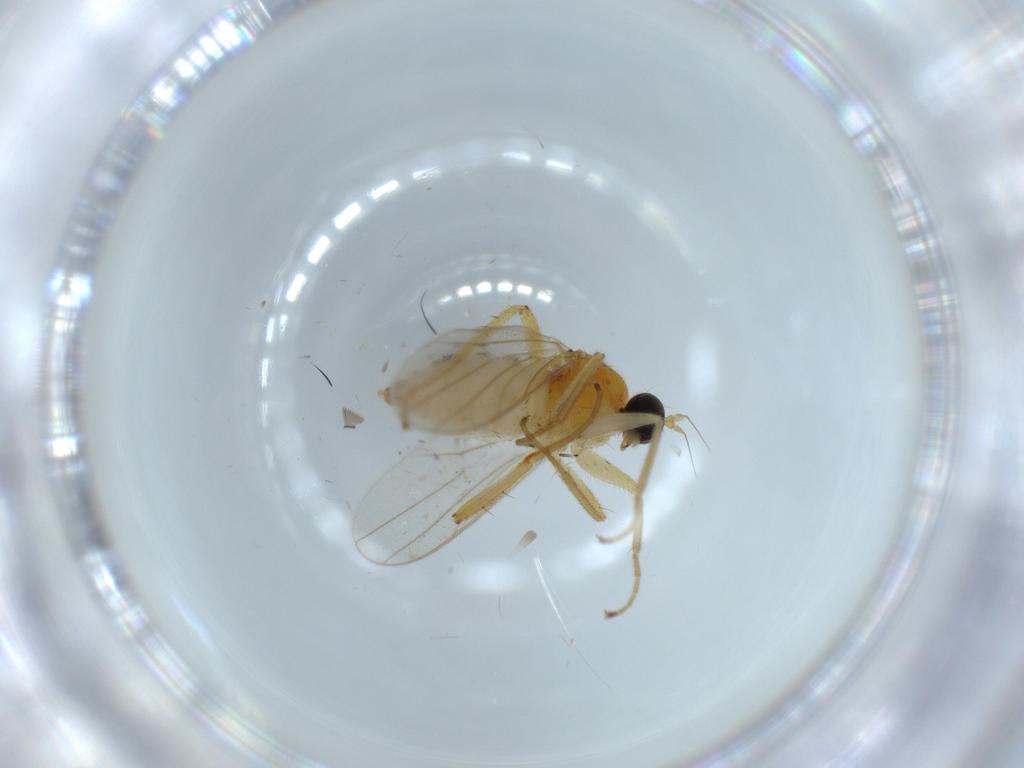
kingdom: Animalia
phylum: Arthropoda
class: Insecta
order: Diptera
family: Hybotidae
